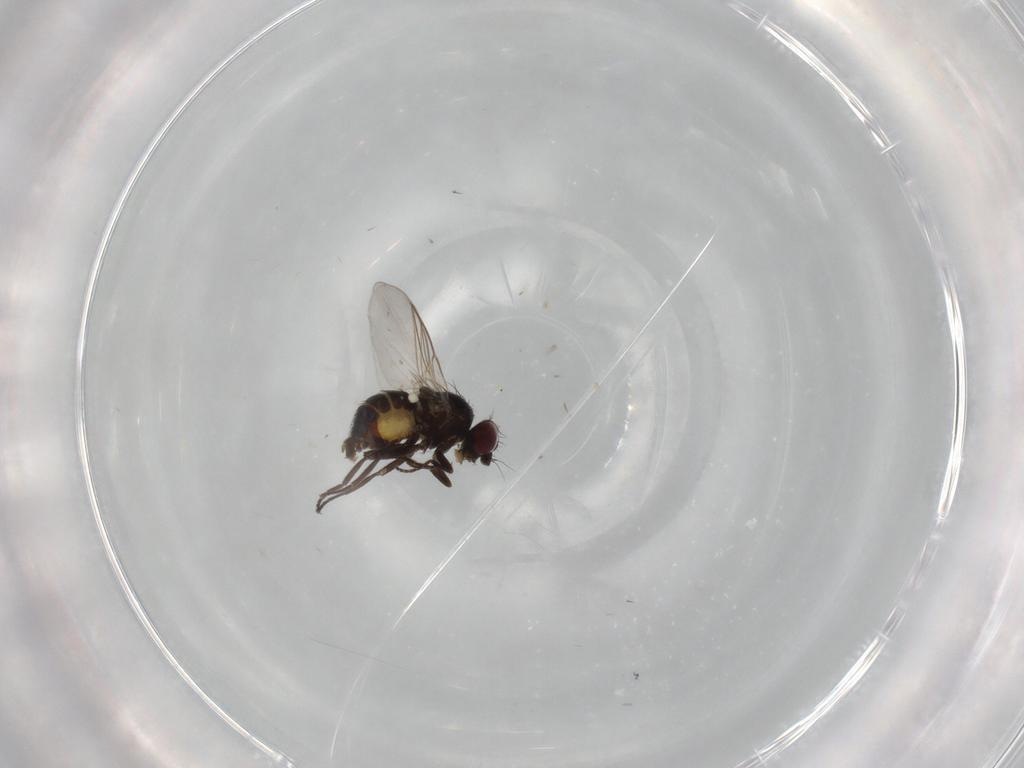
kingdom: Animalia
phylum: Arthropoda
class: Insecta
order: Diptera
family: Agromyzidae
